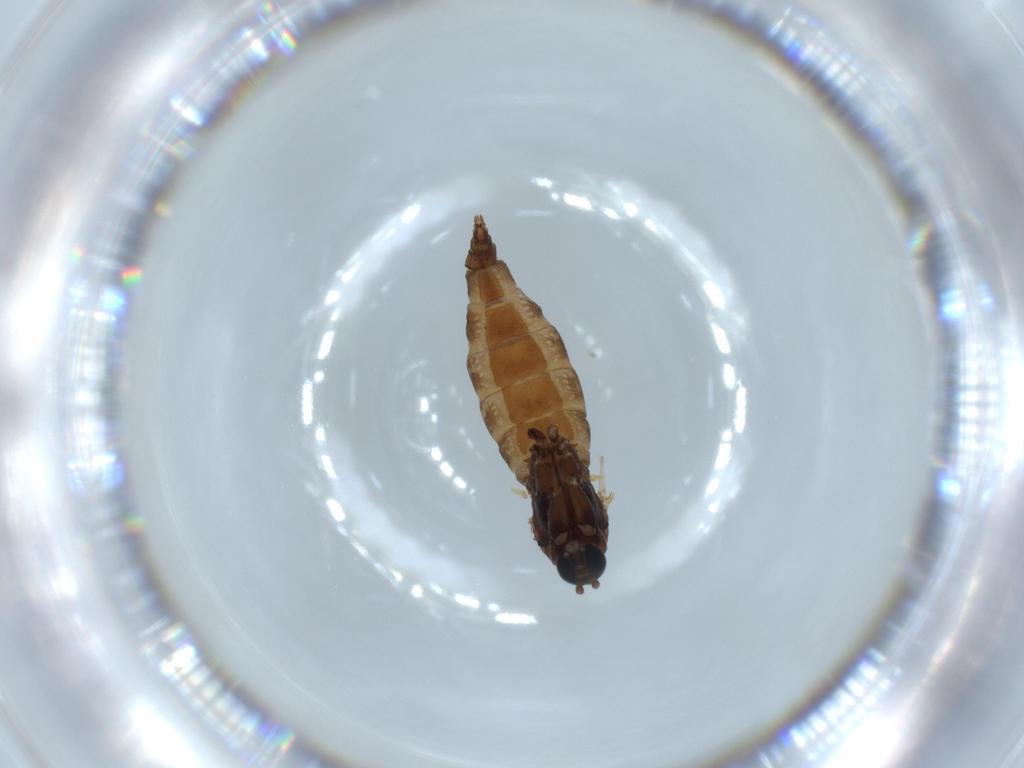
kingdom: Animalia
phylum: Arthropoda
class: Insecta
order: Diptera
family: Sciaridae
